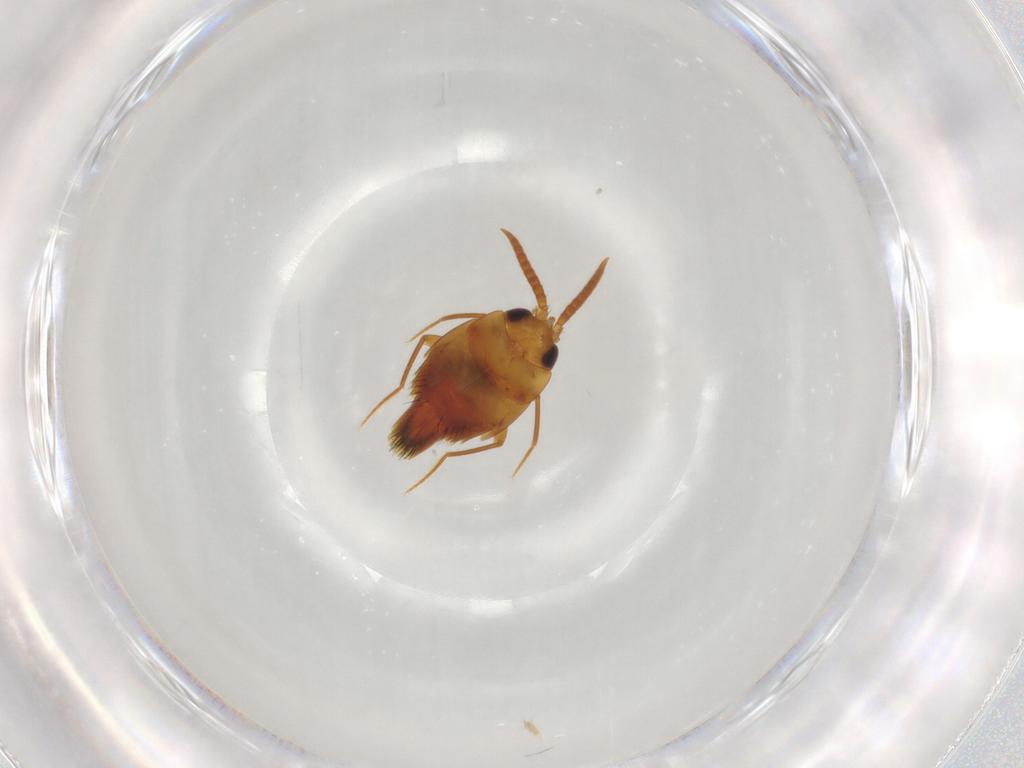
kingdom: Animalia
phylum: Arthropoda
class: Insecta
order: Coleoptera
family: Staphylinidae
